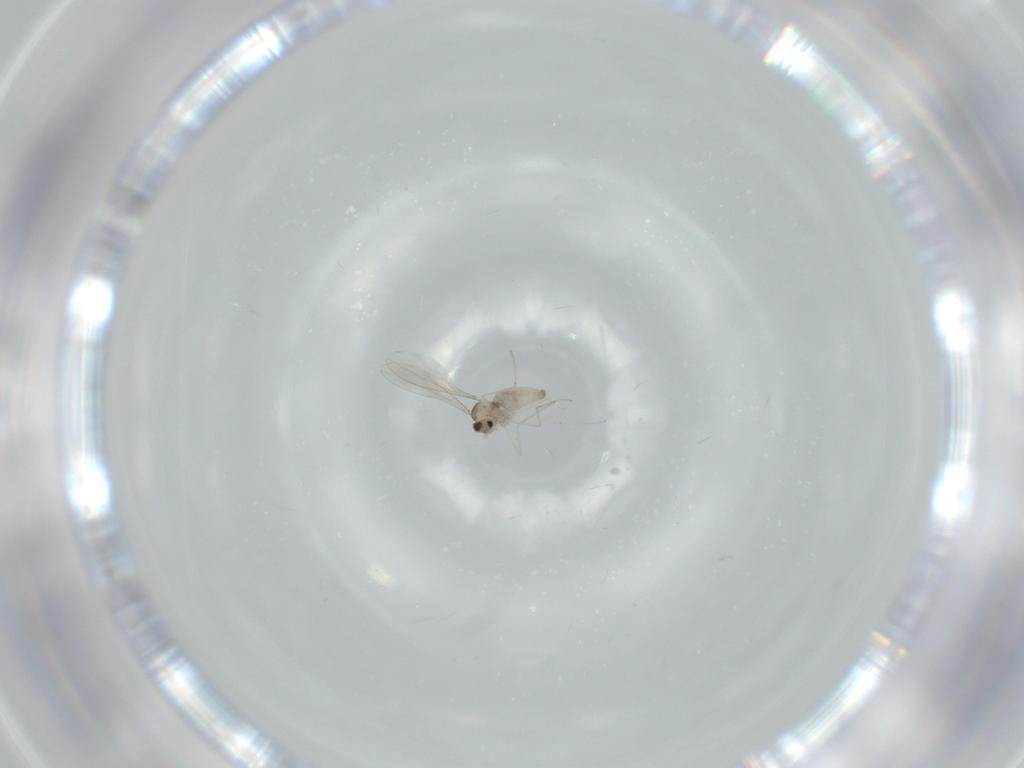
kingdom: Animalia
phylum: Arthropoda
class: Insecta
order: Diptera
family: Cecidomyiidae
